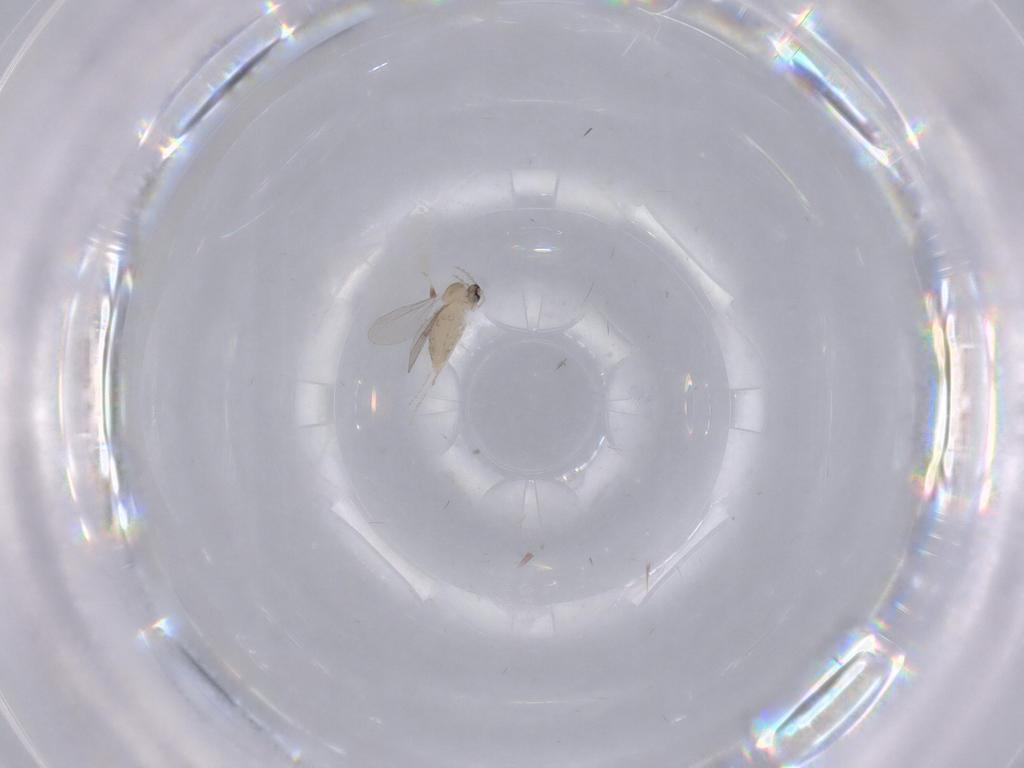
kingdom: Animalia
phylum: Arthropoda
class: Insecta
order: Diptera
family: Cecidomyiidae
